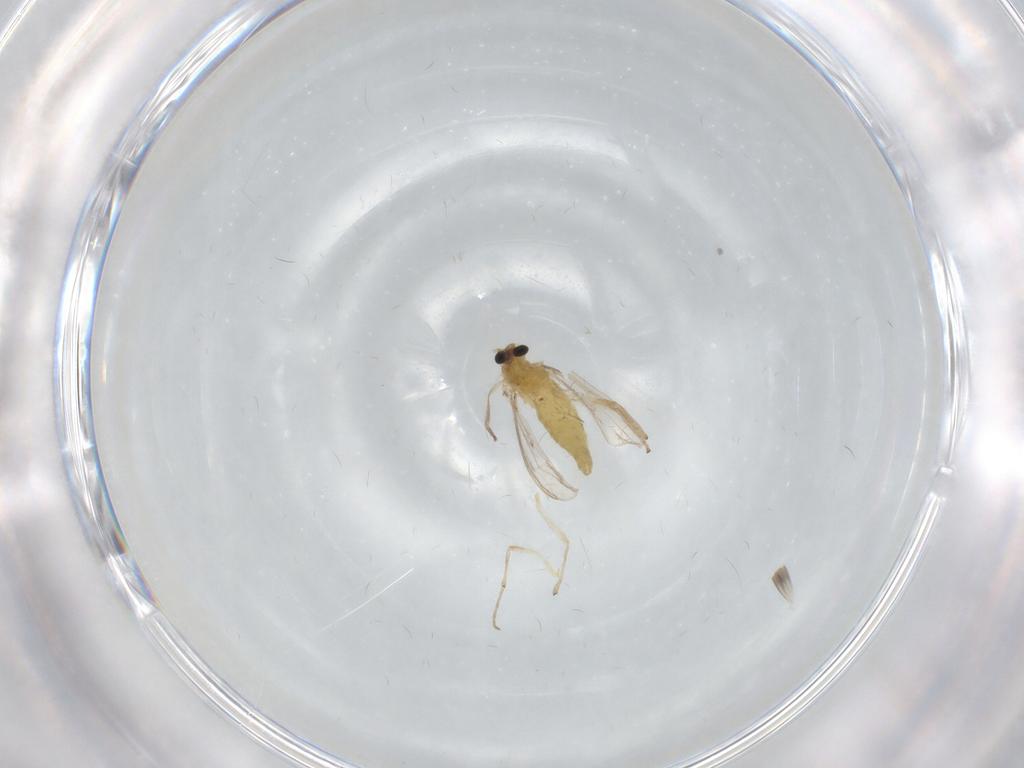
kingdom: Animalia
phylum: Arthropoda
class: Insecta
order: Diptera
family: Chironomidae
